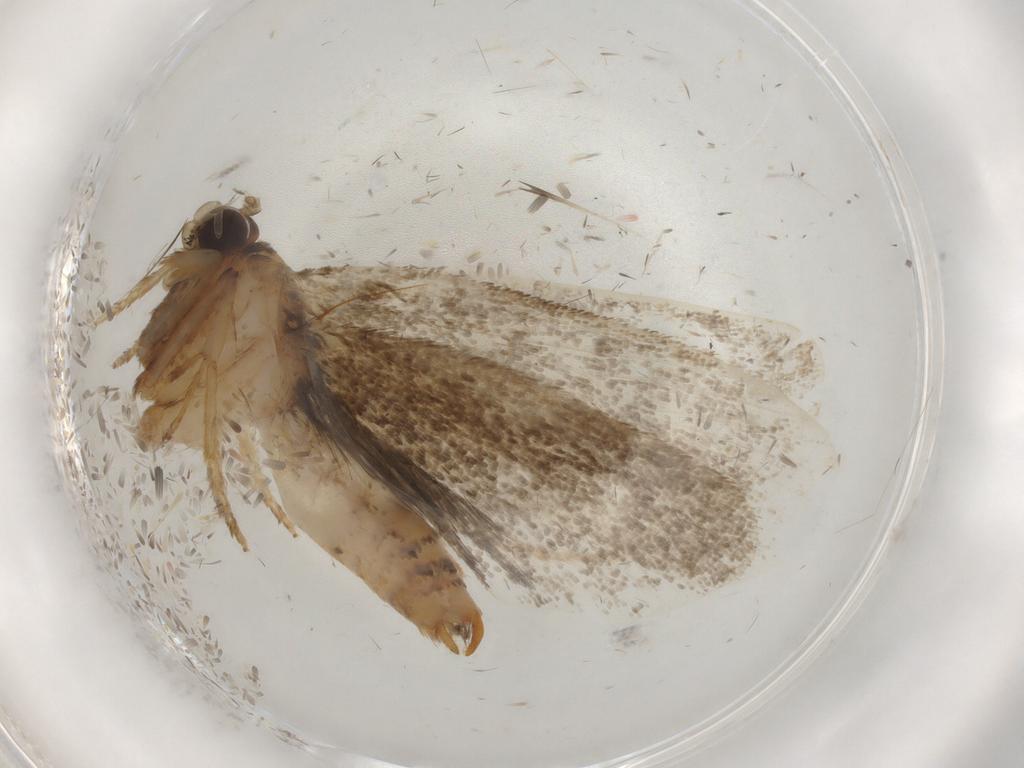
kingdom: Animalia
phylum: Arthropoda
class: Insecta
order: Lepidoptera
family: Tineidae
